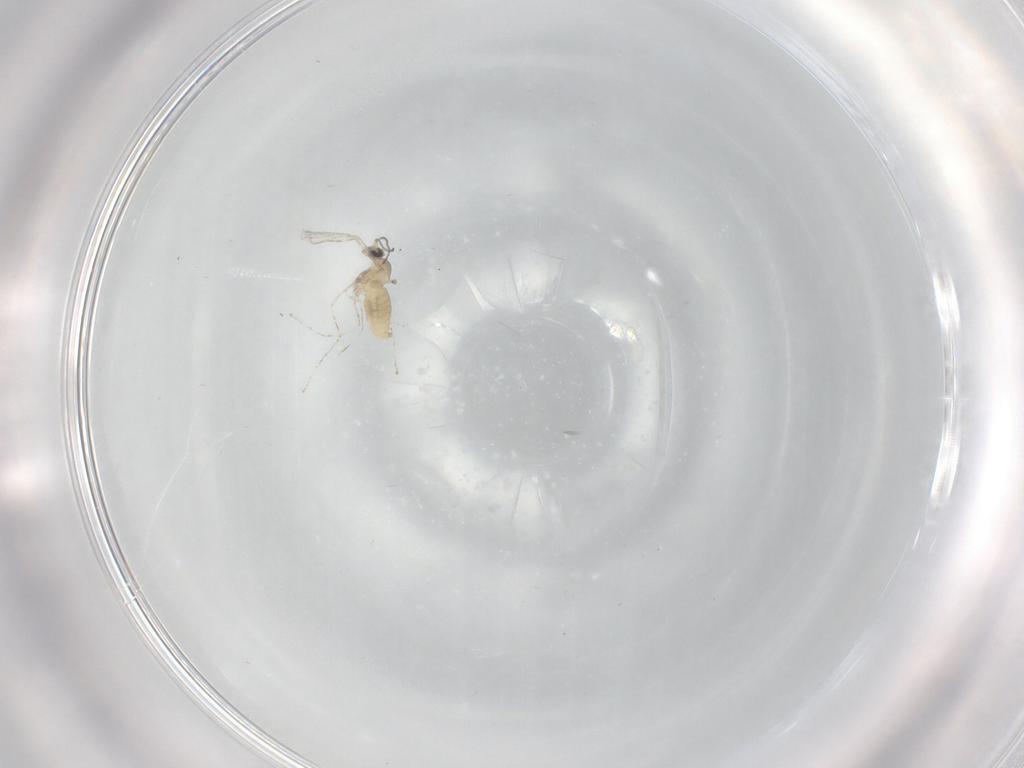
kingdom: Animalia
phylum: Arthropoda
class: Insecta
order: Diptera
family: Cecidomyiidae
